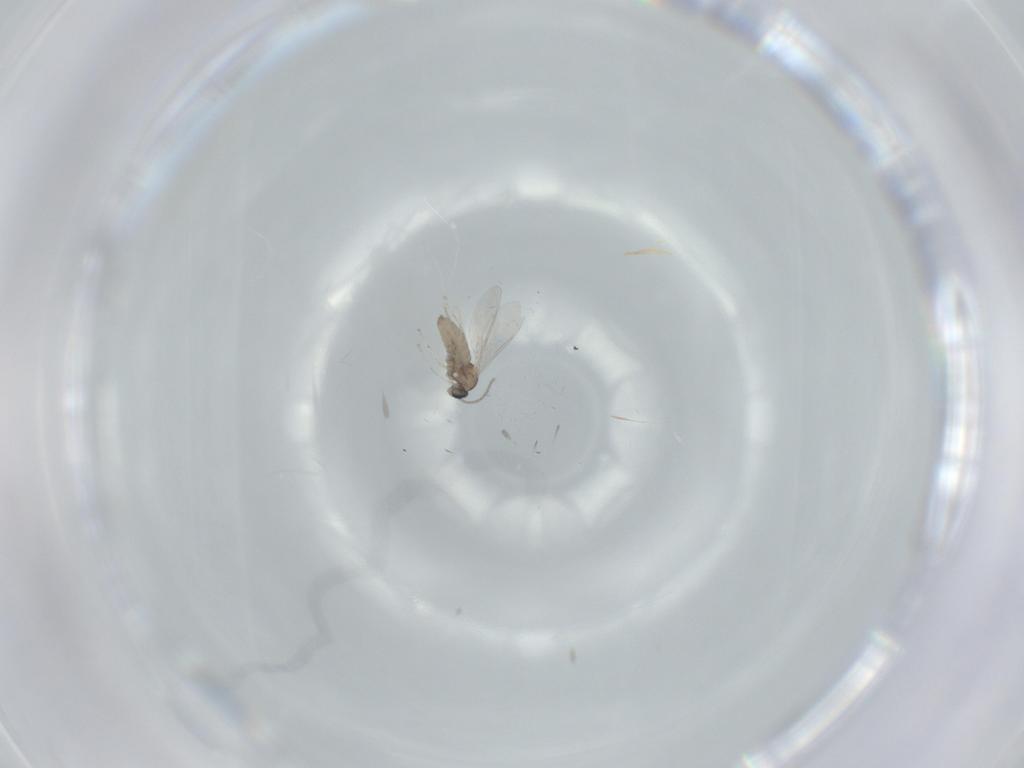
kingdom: Animalia
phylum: Arthropoda
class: Insecta
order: Diptera
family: Cecidomyiidae
